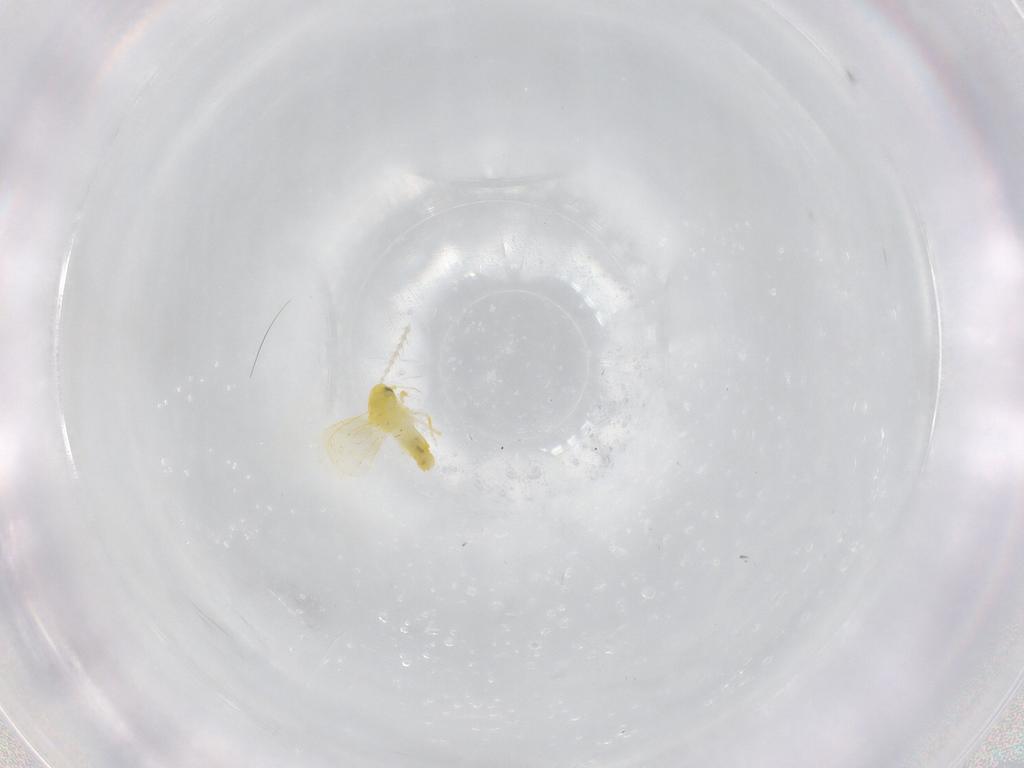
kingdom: Animalia
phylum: Arthropoda
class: Insecta
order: Hemiptera
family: Aleyrodidae
